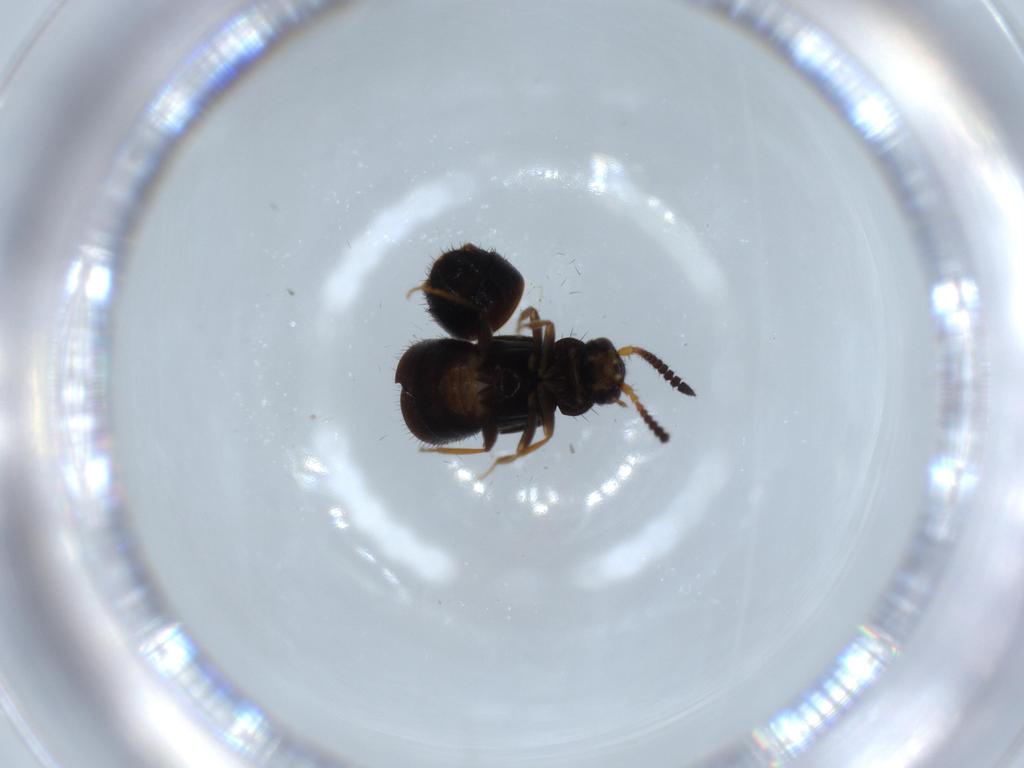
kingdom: Animalia
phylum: Arthropoda
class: Insecta
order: Coleoptera
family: Staphylinidae
